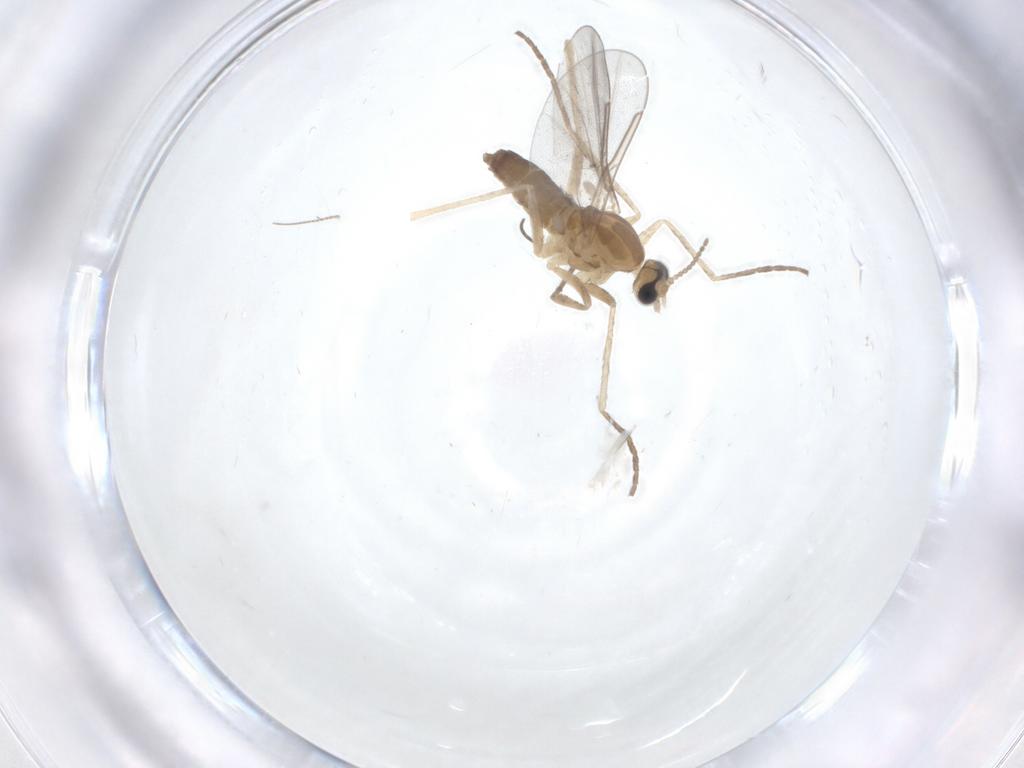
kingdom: Animalia
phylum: Arthropoda
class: Insecta
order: Diptera
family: Cecidomyiidae
